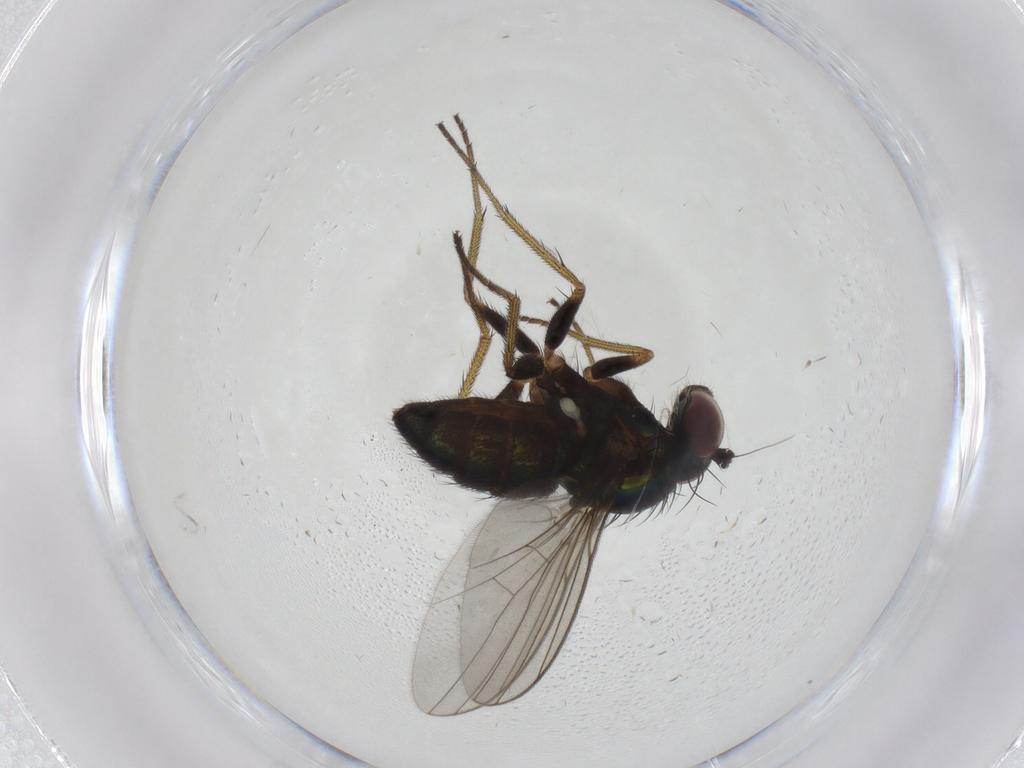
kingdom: Animalia
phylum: Arthropoda
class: Insecta
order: Diptera
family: Dolichopodidae
